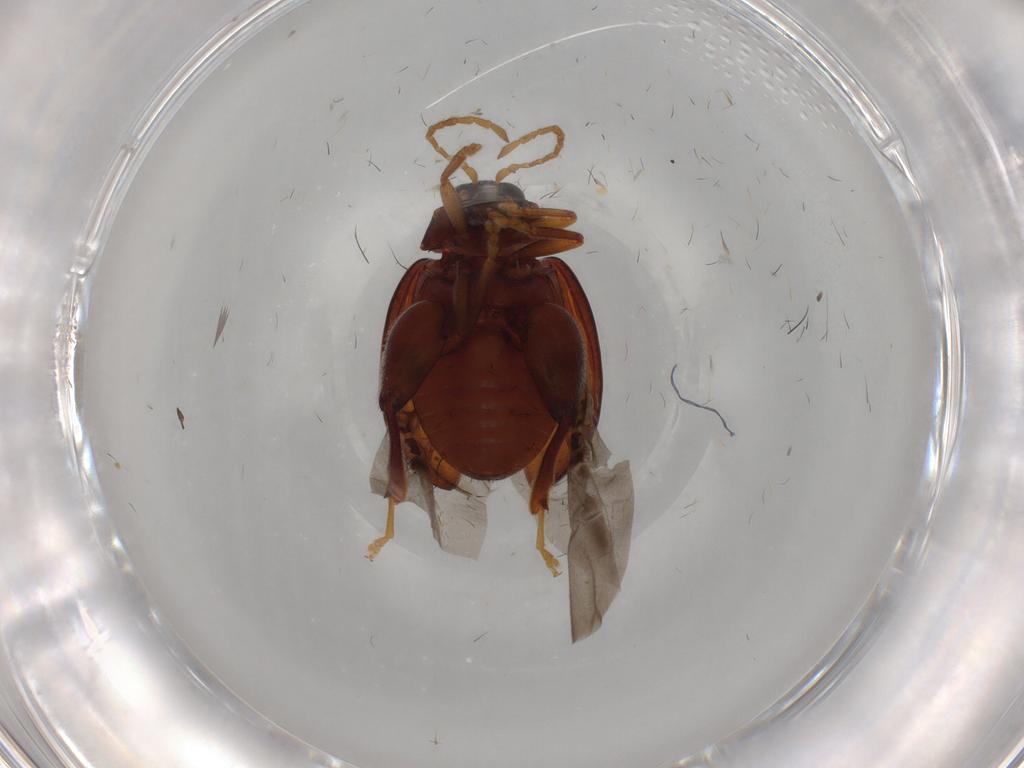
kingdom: Animalia
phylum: Arthropoda
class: Insecta
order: Coleoptera
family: Chrysomelidae
